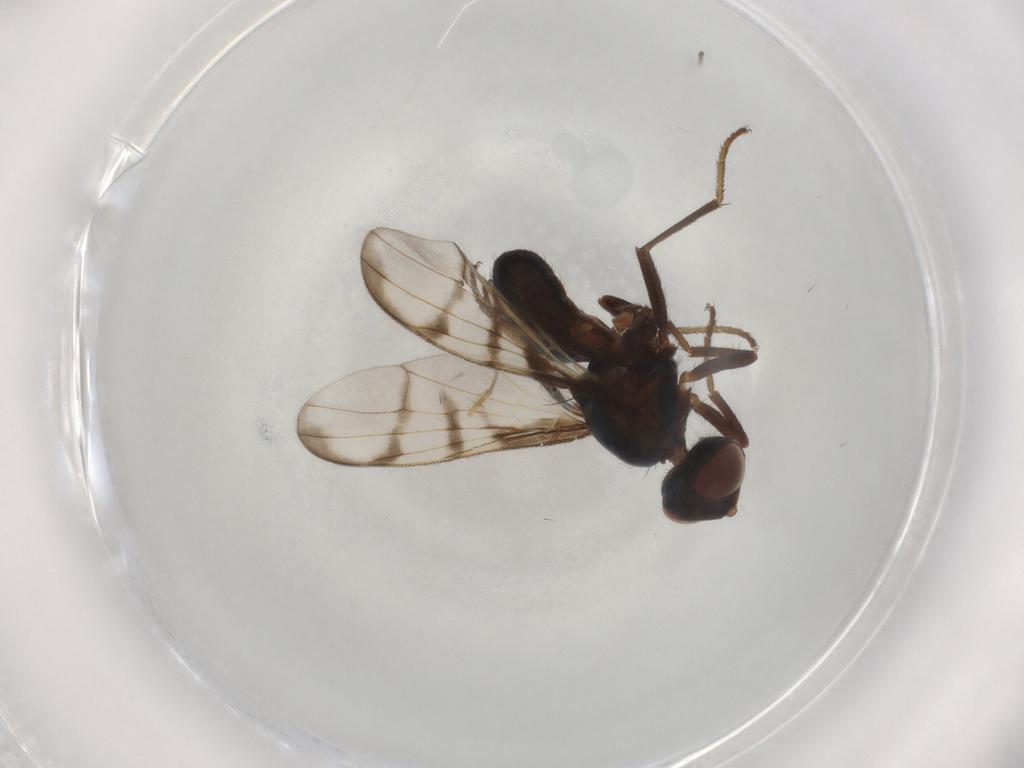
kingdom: Animalia
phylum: Arthropoda
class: Insecta
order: Diptera
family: Platystomatidae
